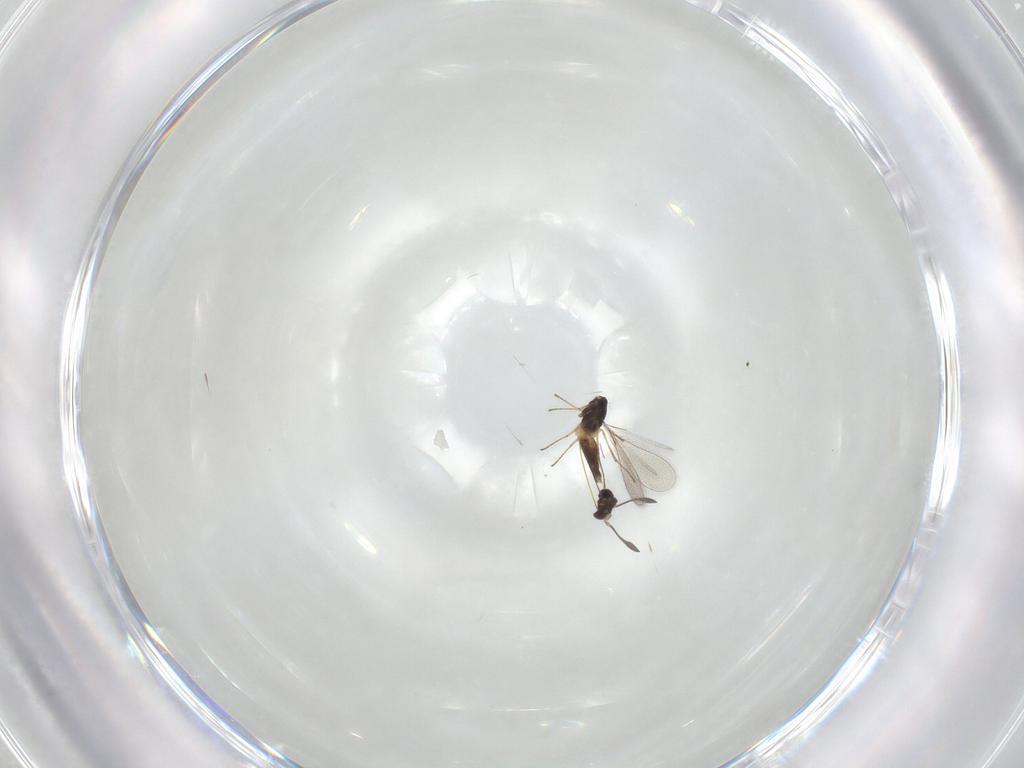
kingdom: Animalia
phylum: Arthropoda
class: Insecta
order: Hymenoptera
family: Mymaridae
